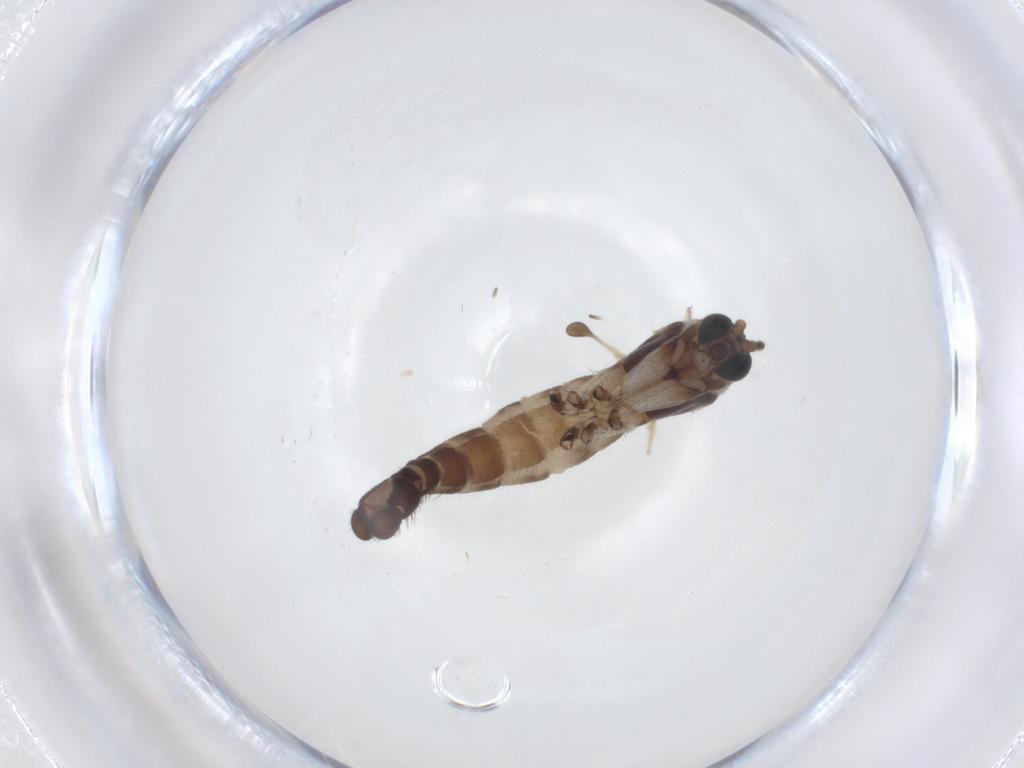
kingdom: Animalia
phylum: Arthropoda
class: Insecta
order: Diptera
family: Sciaridae
